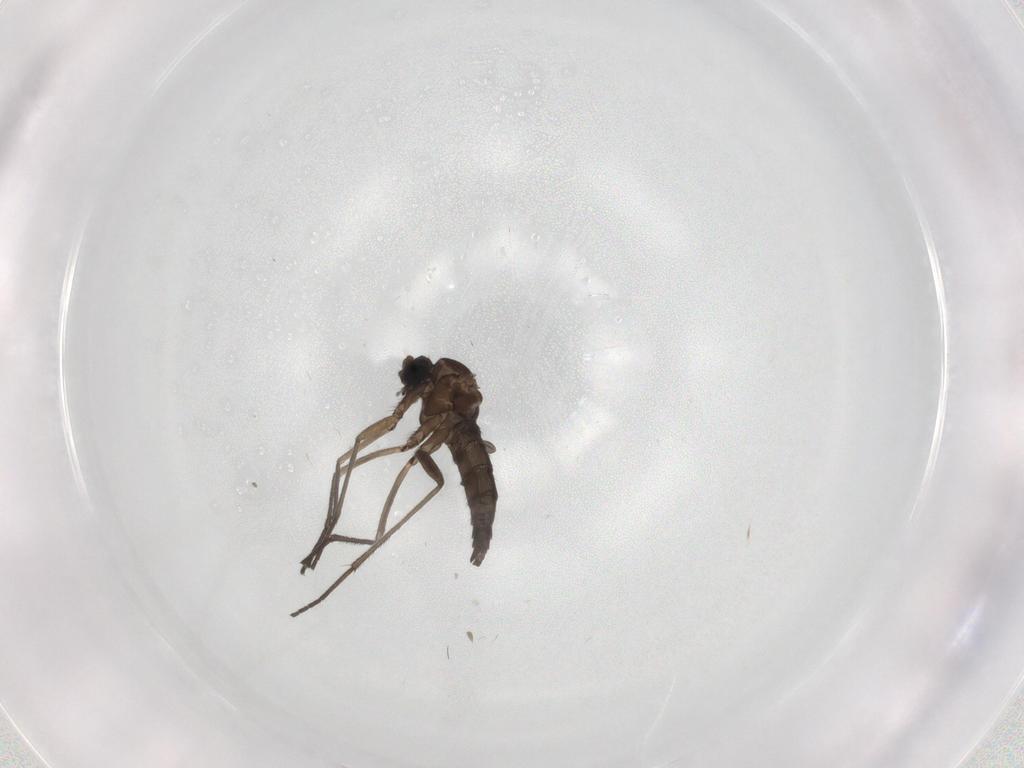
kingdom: Animalia
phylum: Arthropoda
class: Insecta
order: Diptera
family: Sciaridae
